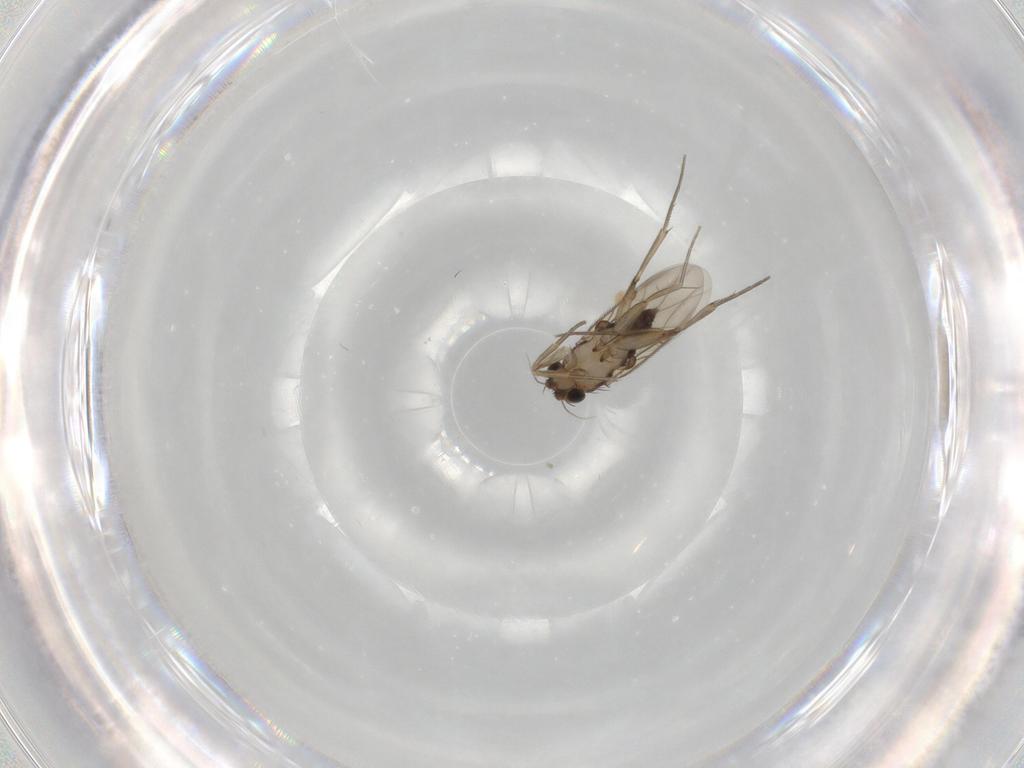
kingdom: Animalia
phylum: Arthropoda
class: Insecta
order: Diptera
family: Phoridae
